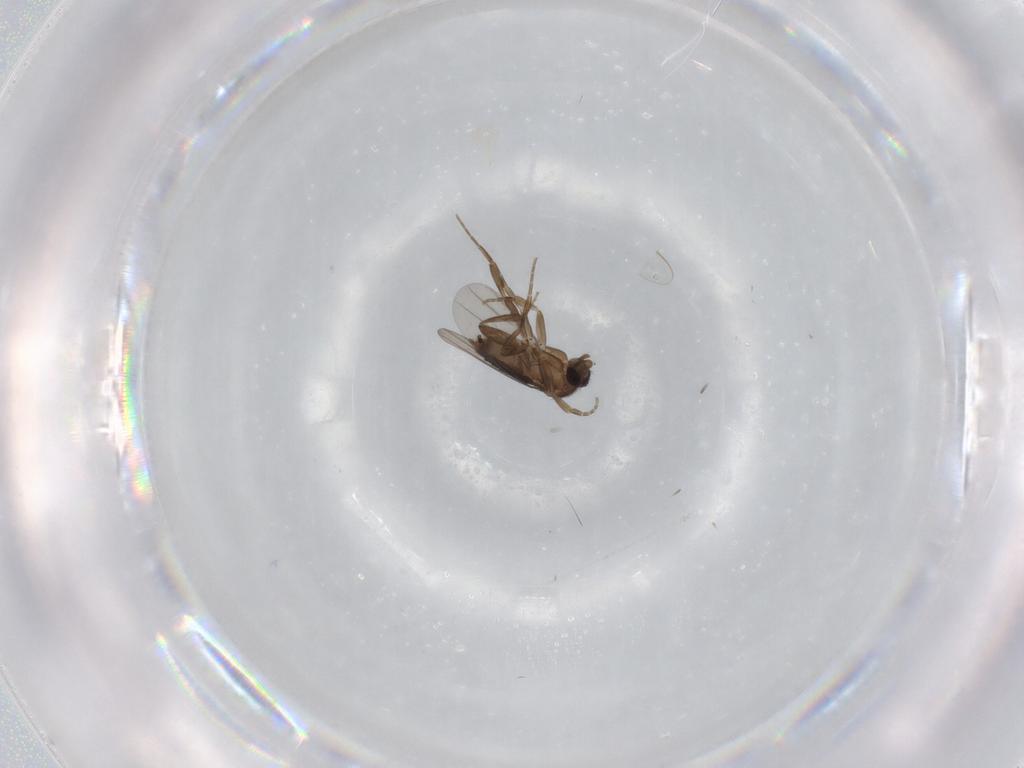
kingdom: Animalia
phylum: Arthropoda
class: Insecta
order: Diptera
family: Phoridae
